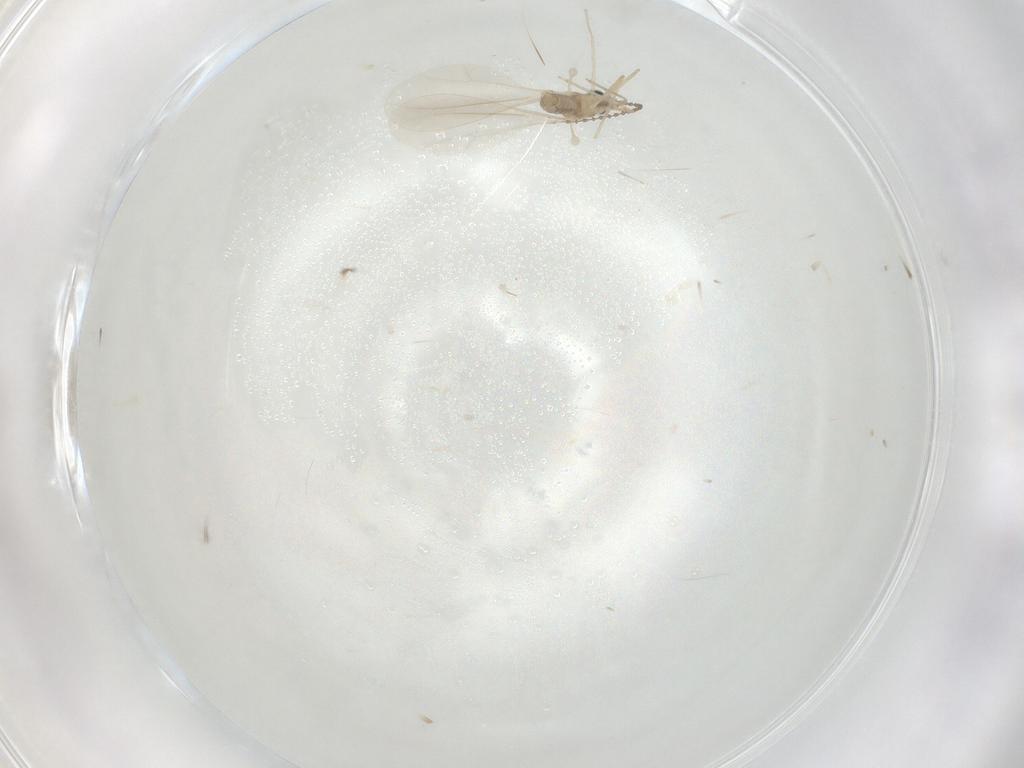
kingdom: Animalia
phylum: Arthropoda
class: Insecta
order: Diptera
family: Cecidomyiidae
